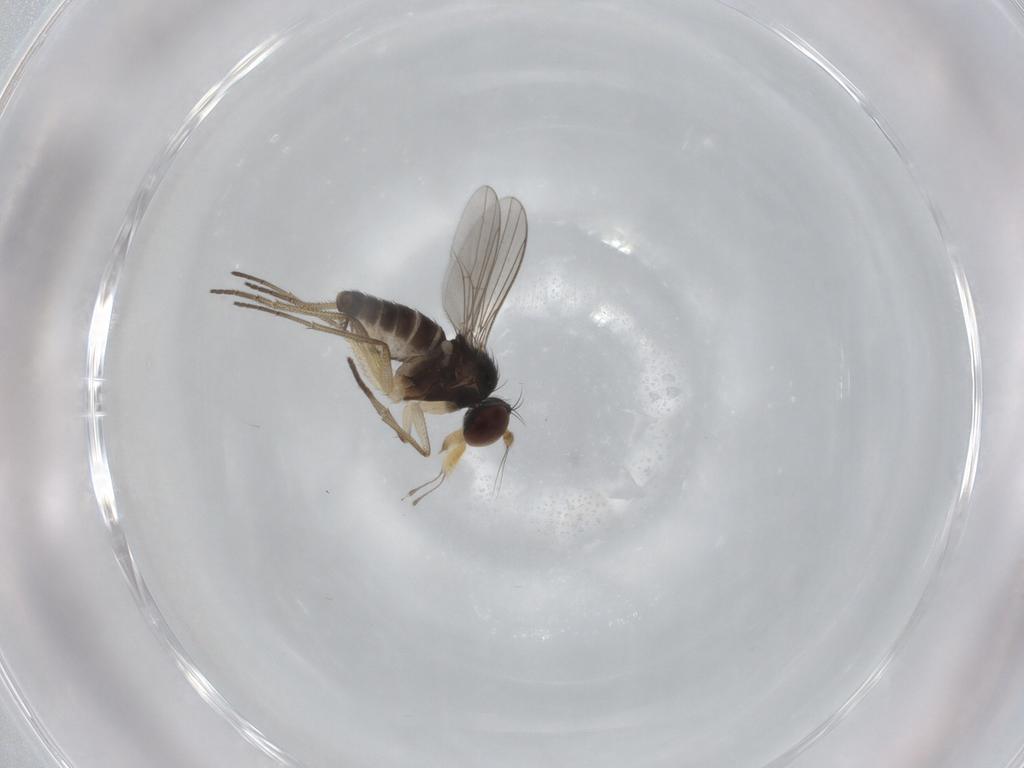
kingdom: Animalia
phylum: Arthropoda
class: Insecta
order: Diptera
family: Dolichopodidae
